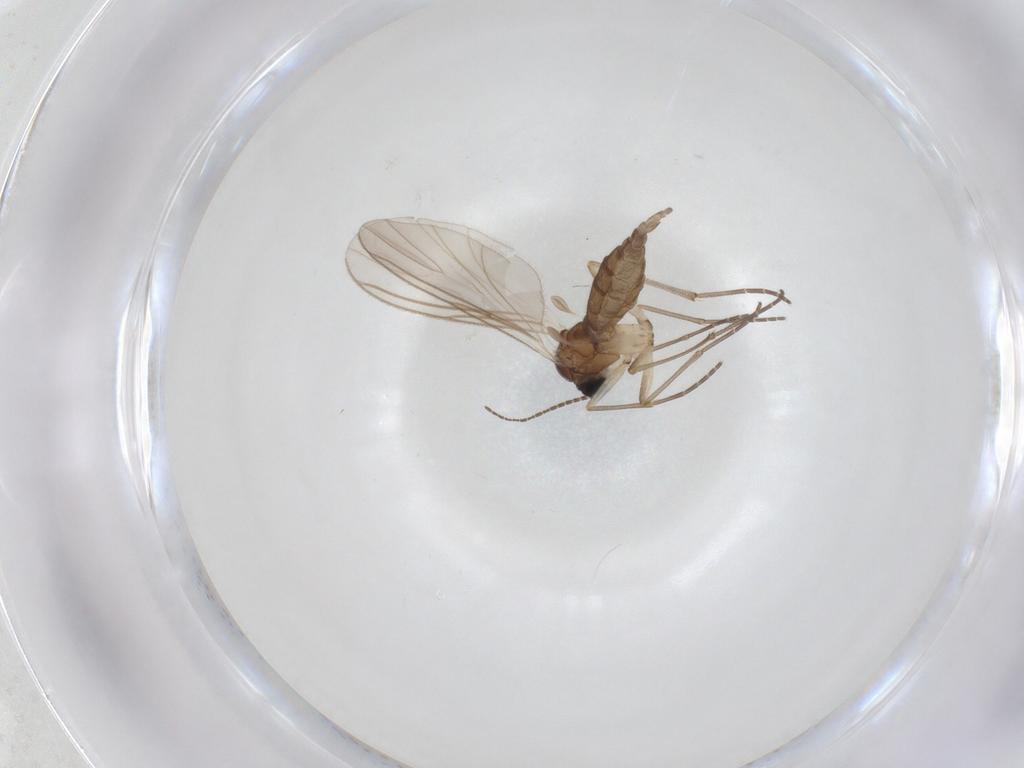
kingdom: Animalia
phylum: Arthropoda
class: Insecta
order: Diptera
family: Sciaridae
